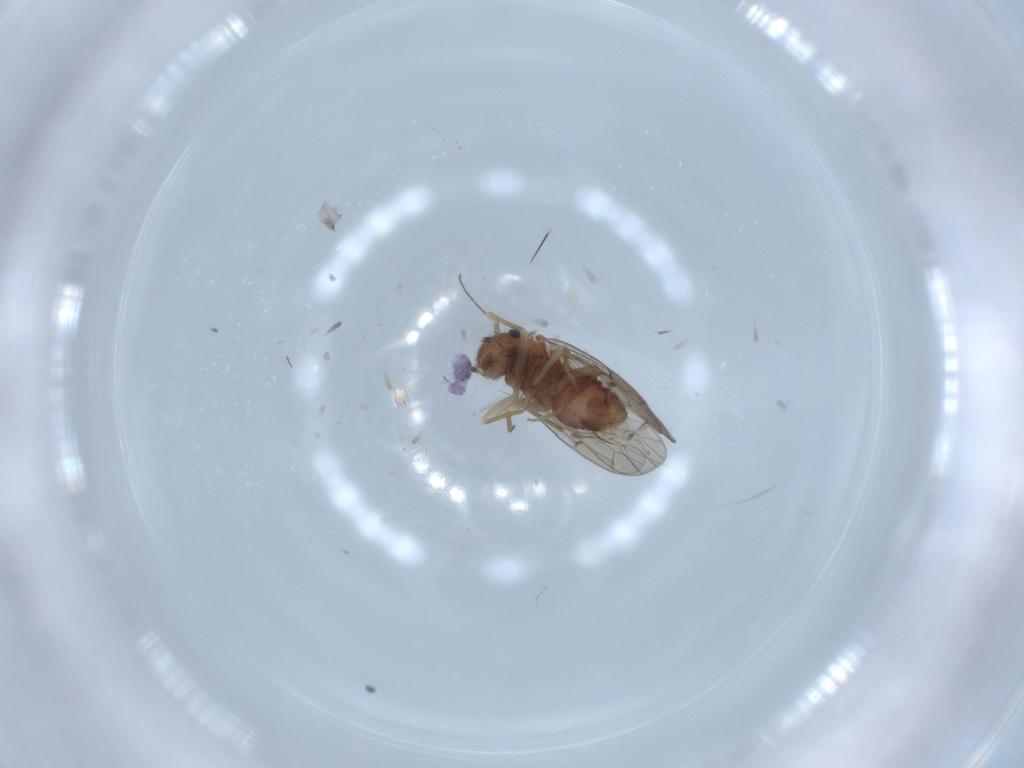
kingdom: Animalia
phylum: Arthropoda
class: Collembola
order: Symphypleona
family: Sminthurididae
